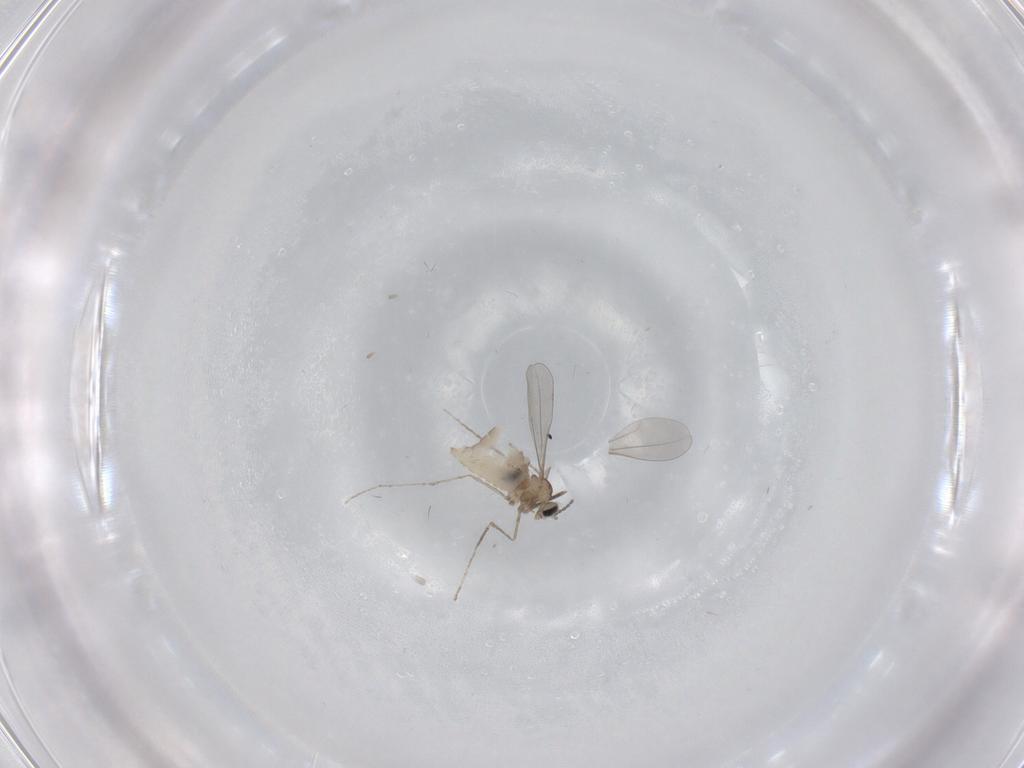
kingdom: Animalia
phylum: Arthropoda
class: Insecta
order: Diptera
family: Cecidomyiidae
